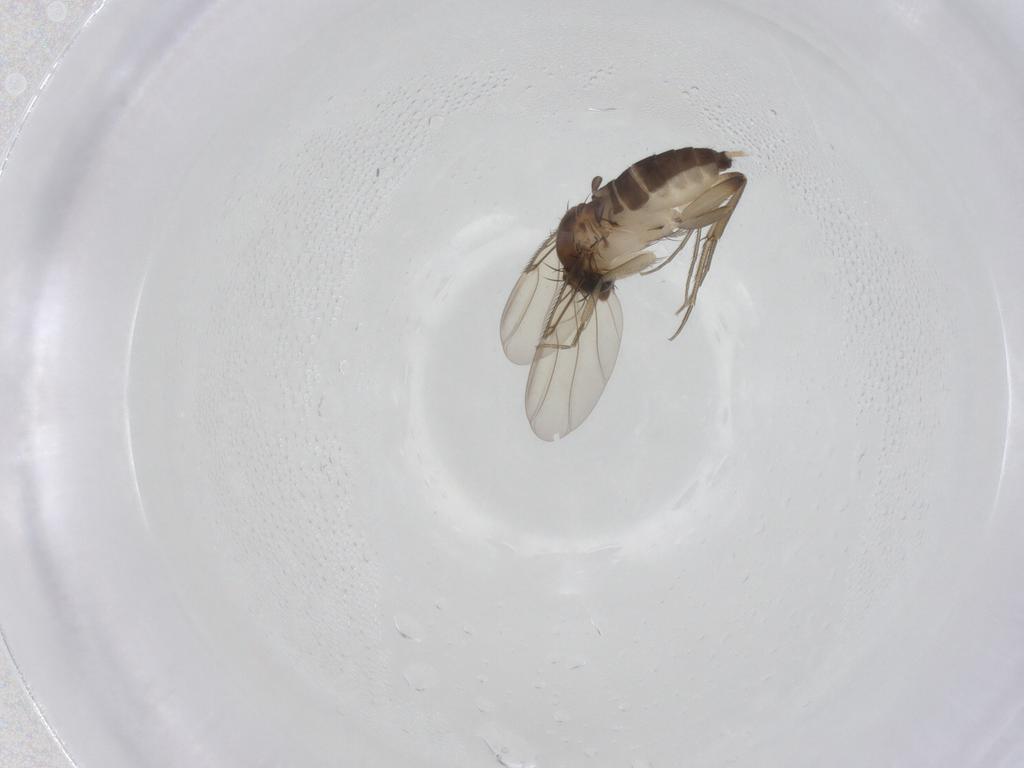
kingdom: Animalia
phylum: Arthropoda
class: Insecta
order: Diptera
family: Phoridae
